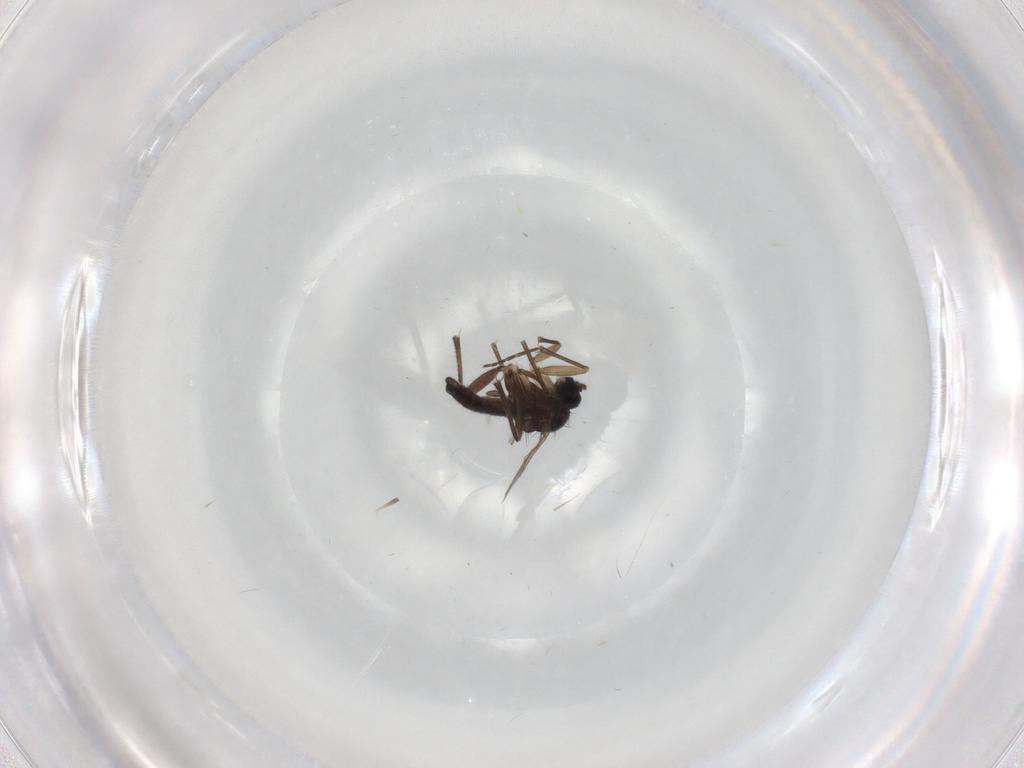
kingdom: Animalia
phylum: Arthropoda
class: Insecta
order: Diptera
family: Sciaridae
